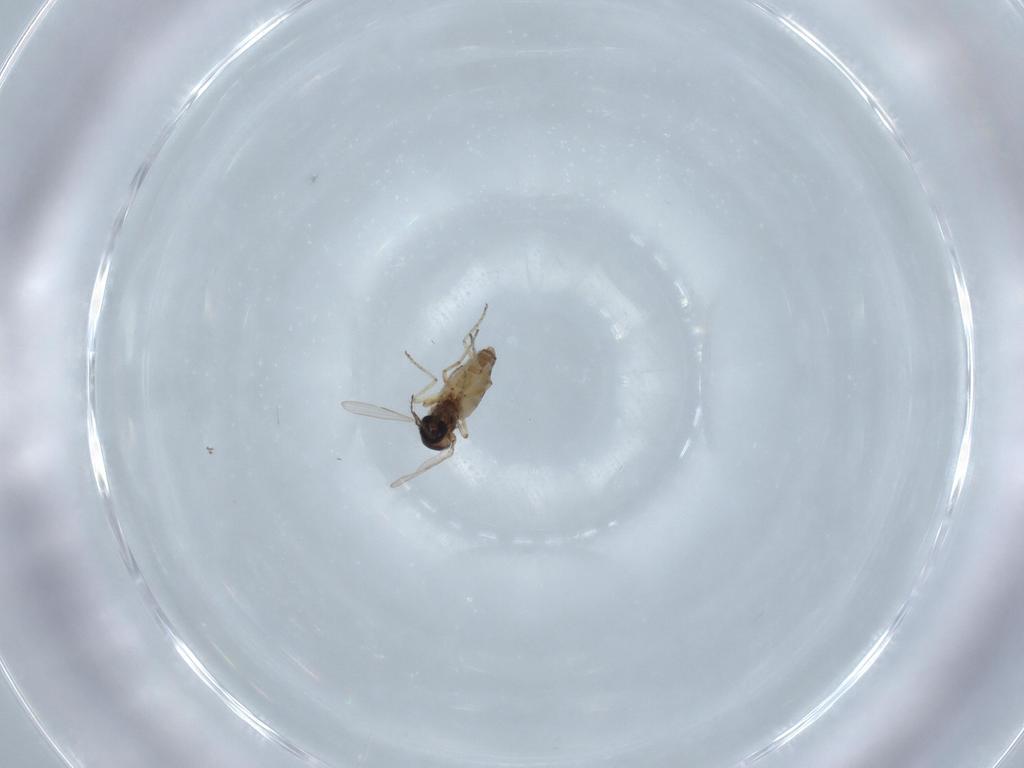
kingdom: Animalia
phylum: Arthropoda
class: Insecta
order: Diptera
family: Ceratopogonidae
